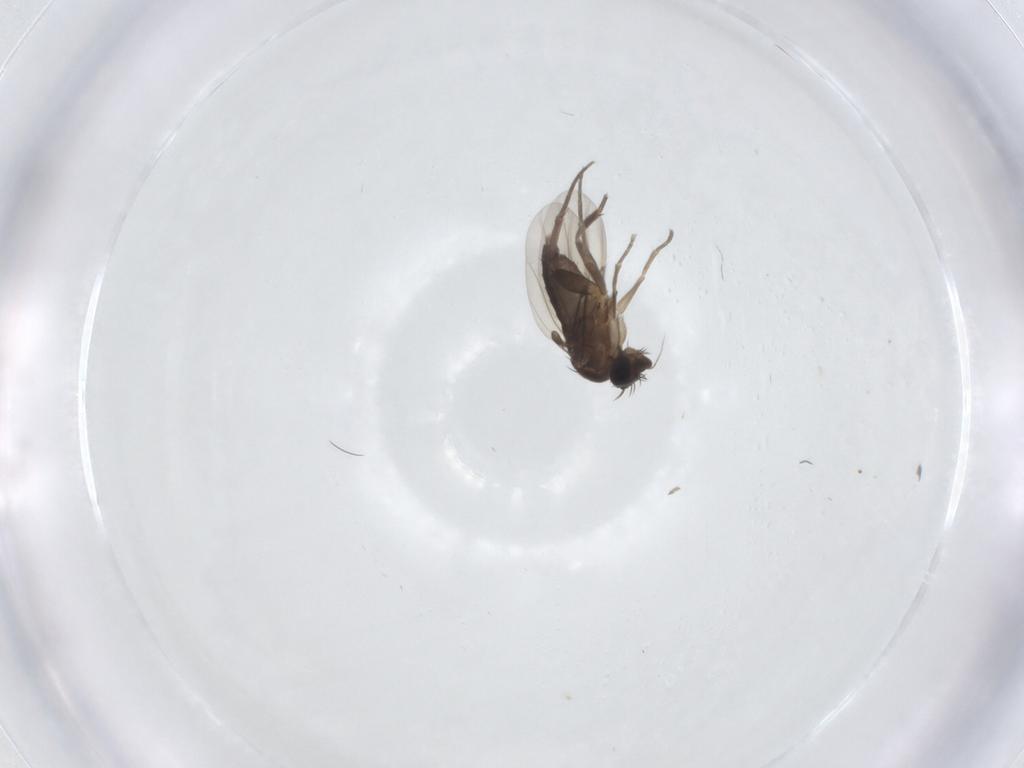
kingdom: Animalia
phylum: Arthropoda
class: Insecta
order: Diptera
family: Phoridae
